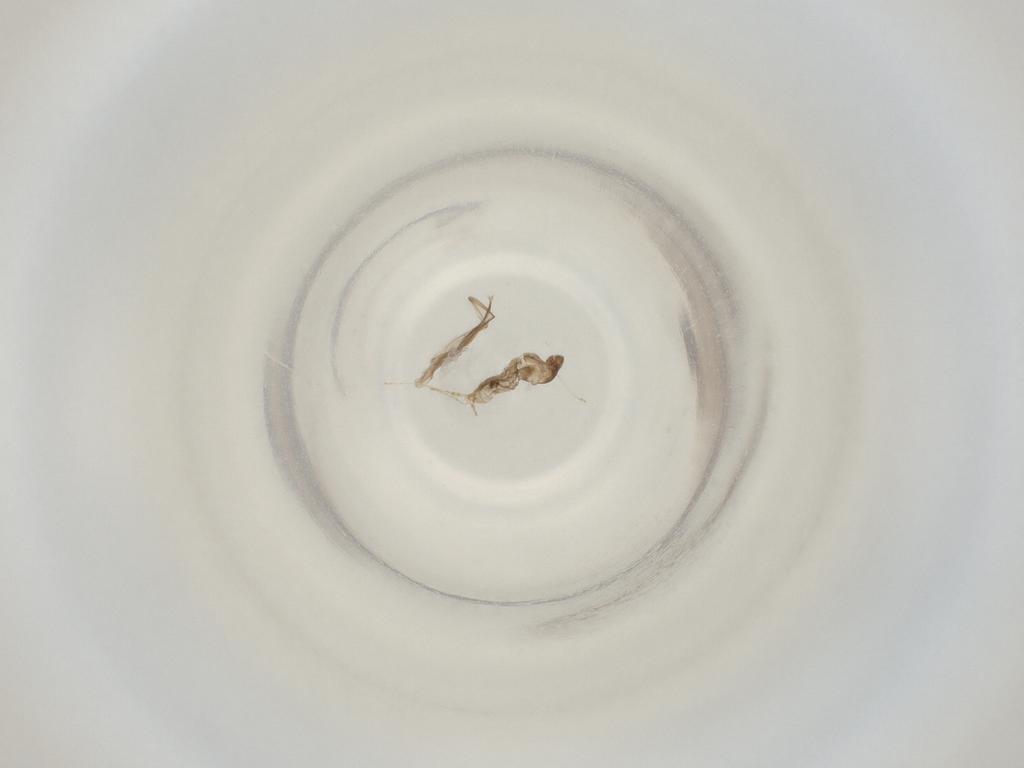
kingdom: Animalia
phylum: Arthropoda
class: Insecta
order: Diptera
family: Cecidomyiidae
